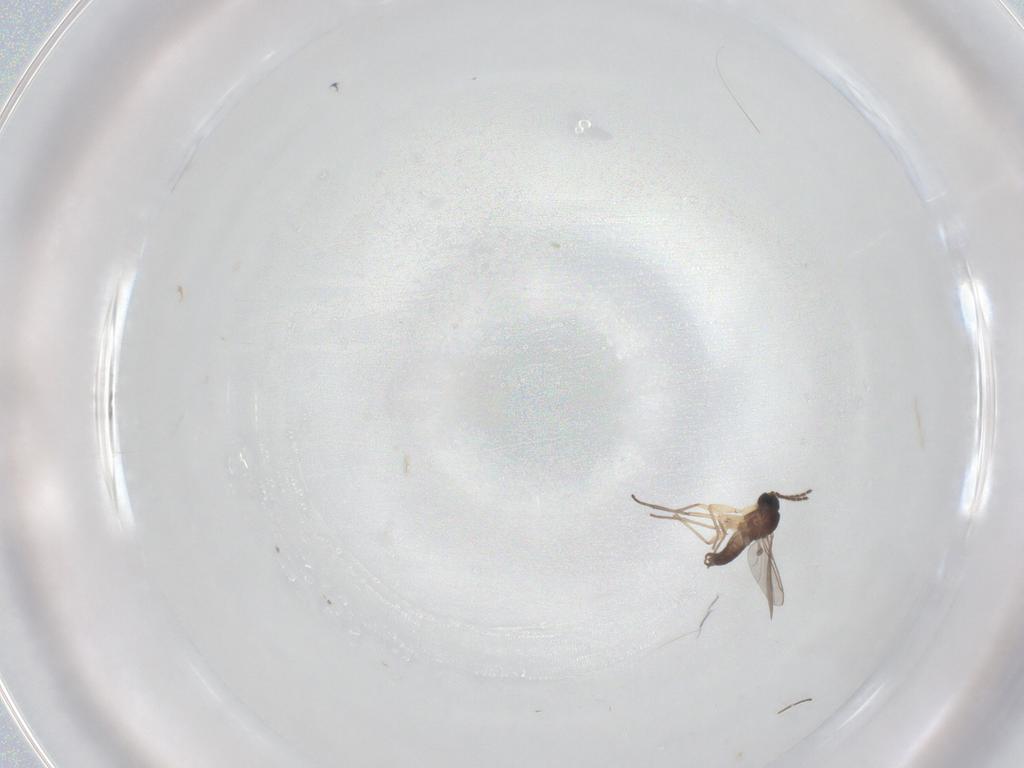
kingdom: Animalia
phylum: Arthropoda
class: Insecta
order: Diptera
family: Sciaridae
